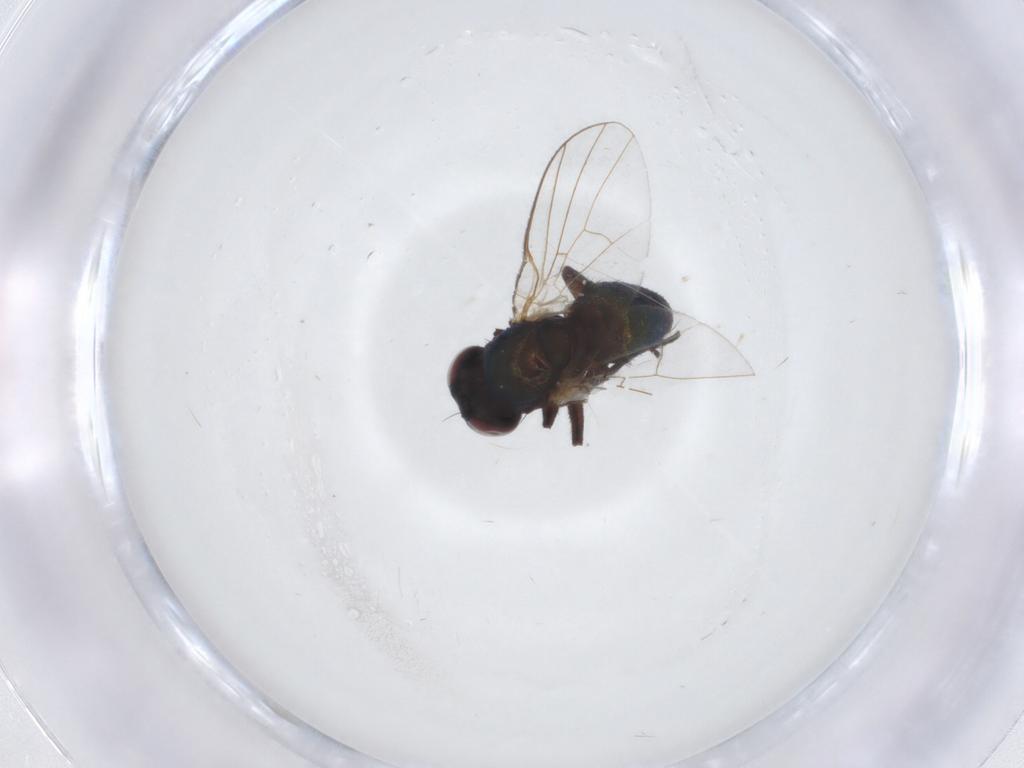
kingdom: Animalia
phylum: Arthropoda
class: Insecta
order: Diptera
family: Agromyzidae
